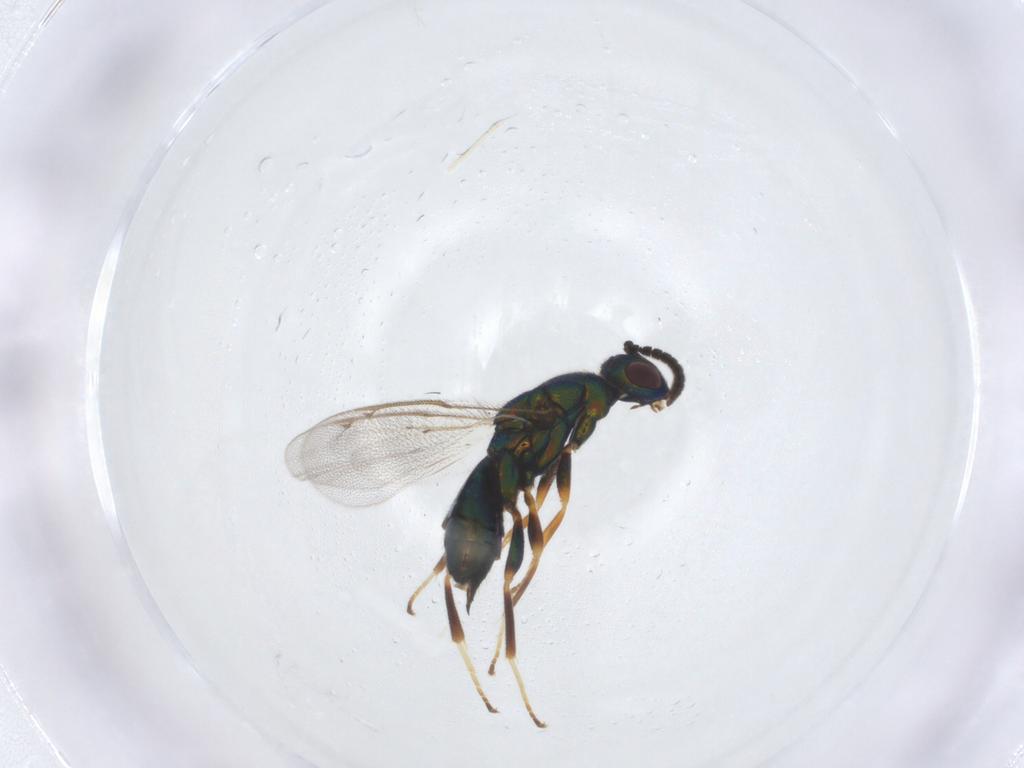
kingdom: Animalia
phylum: Arthropoda
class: Insecta
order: Hymenoptera
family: Torymidae
